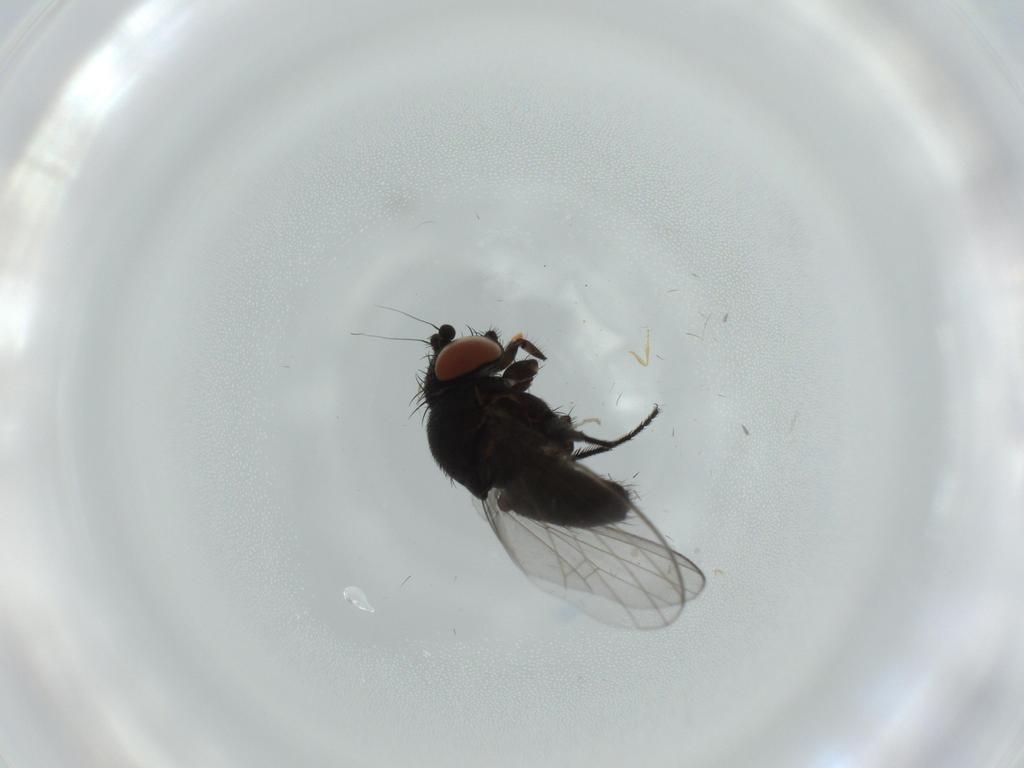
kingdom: Animalia
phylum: Arthropoda
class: Insecta
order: Diptera
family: Milichiidae
